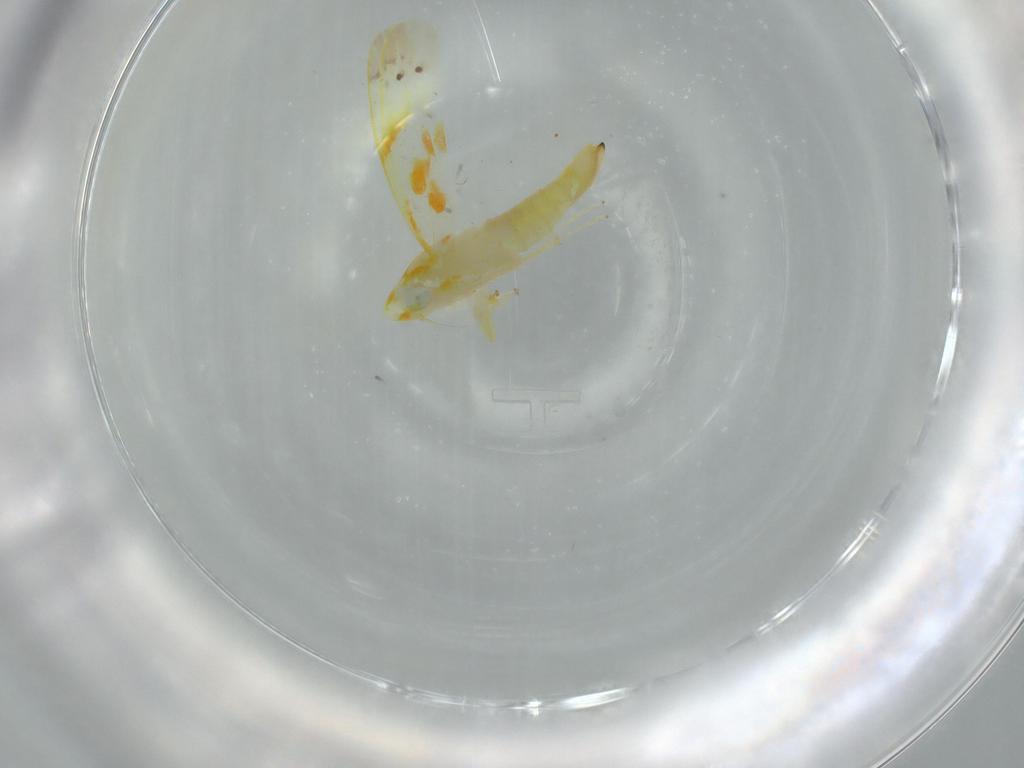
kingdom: Animalia
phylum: Arthropoda
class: Insecta
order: Hemiptera
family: Cicadellidae
